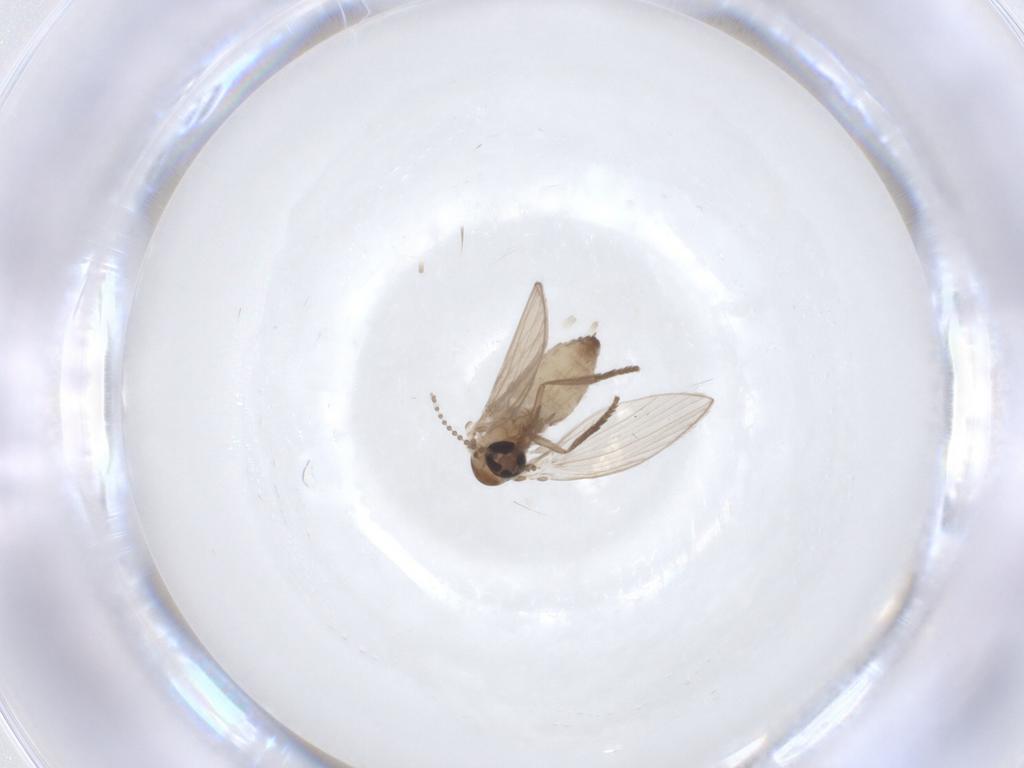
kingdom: Animalia
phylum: Arthropoda
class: Insecta
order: Diptera
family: Psychodidae
